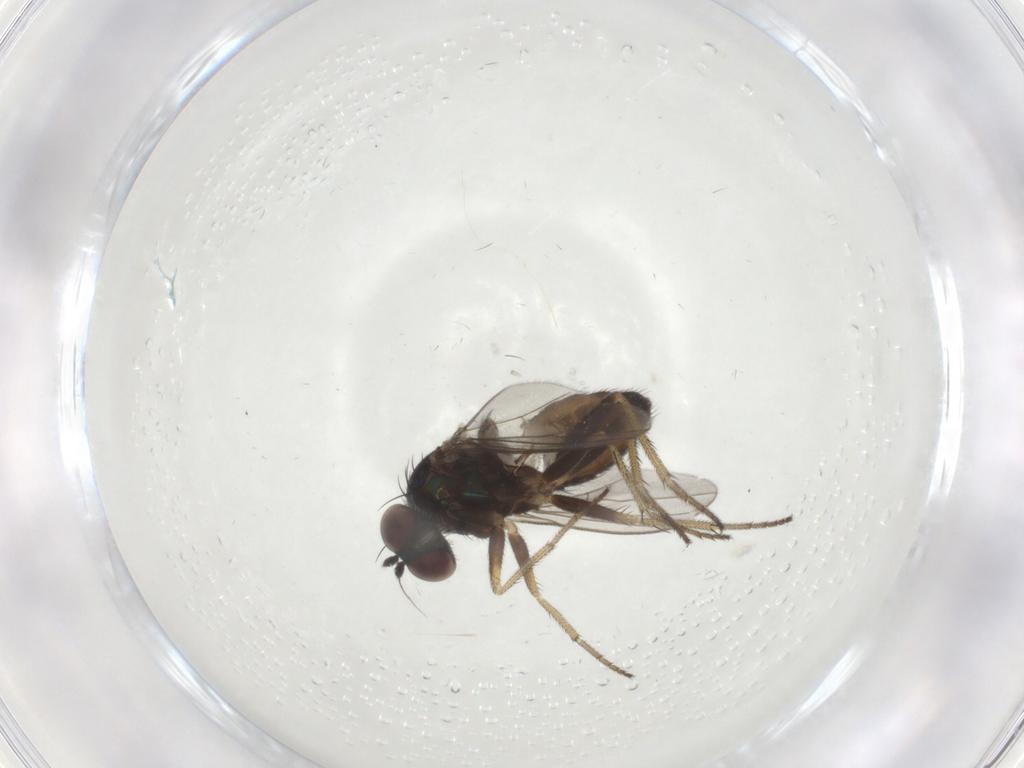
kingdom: Animalia
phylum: Arthropoda
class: Insecta
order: Diptera
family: Dolichopodidae
